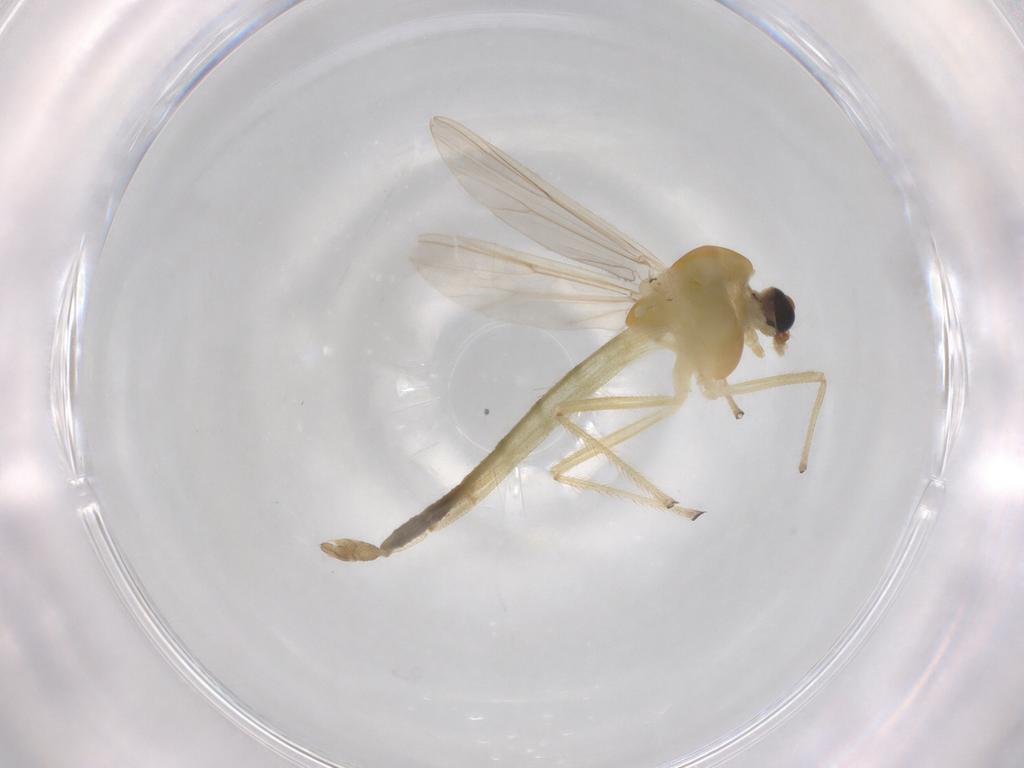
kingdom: Animalia
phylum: Arthropoda
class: Insecta
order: Diptera
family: Chironomidae
